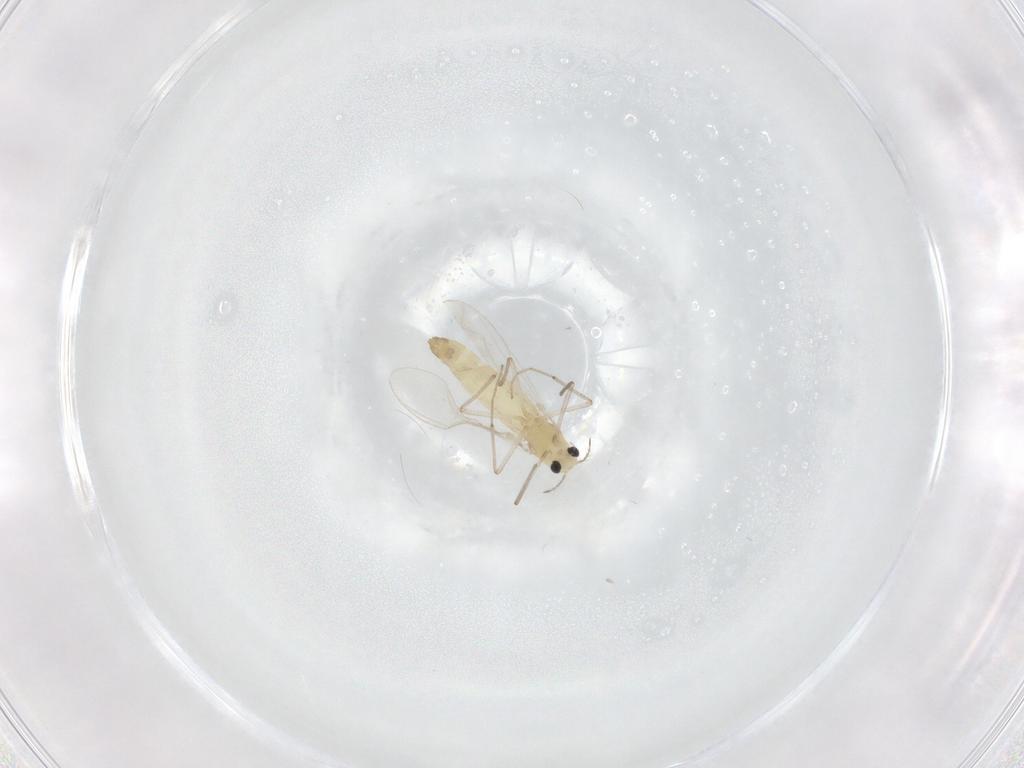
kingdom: Animalia
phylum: Arthropoda
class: Insecta
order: Diptera
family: Chironomidae
